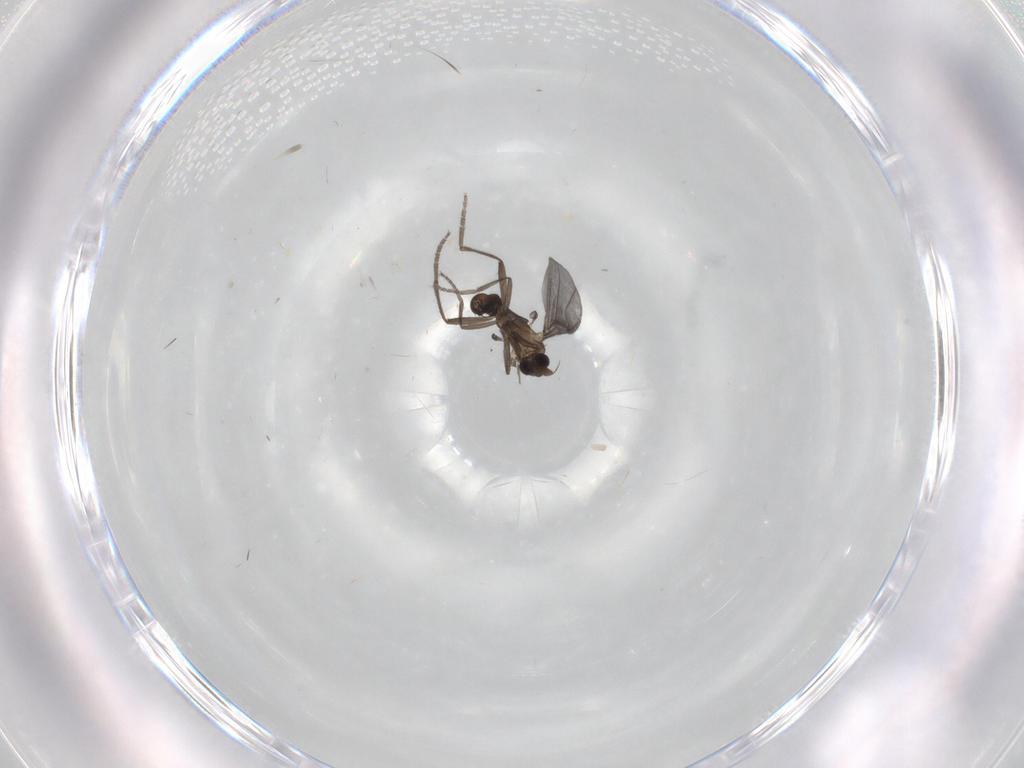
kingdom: Animalia
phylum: Arthropoda
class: Insecta
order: Diptera
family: Phoridae
